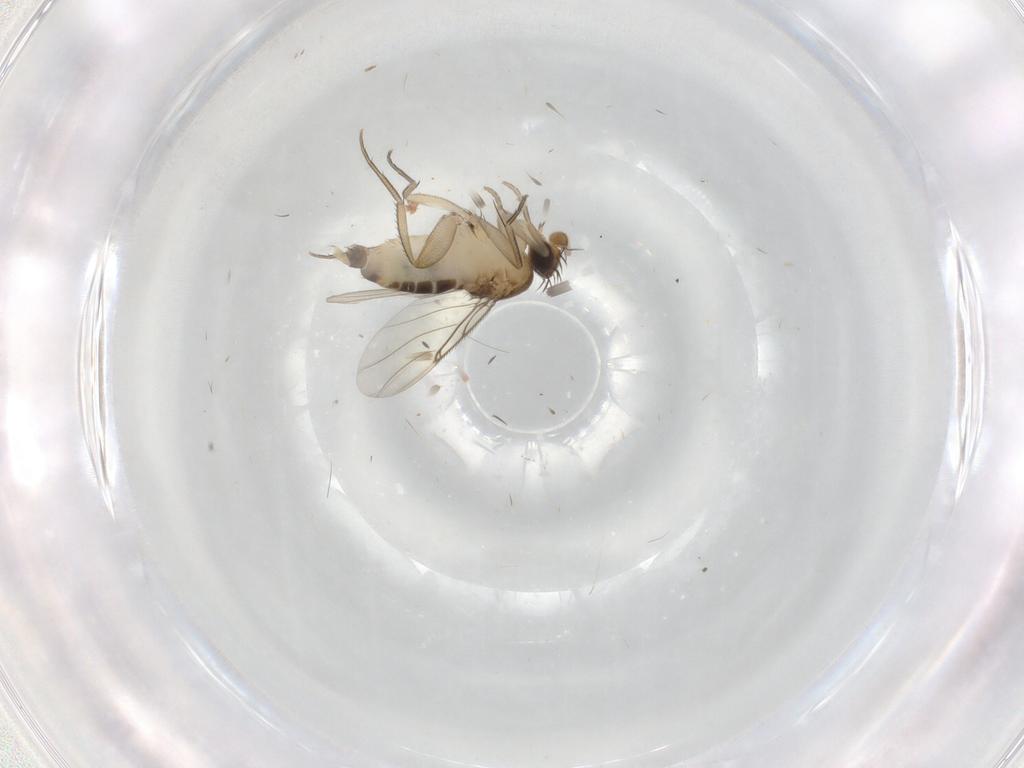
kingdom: Animalia
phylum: Arthropoda
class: Insecta
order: Diptera
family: Phoridae
